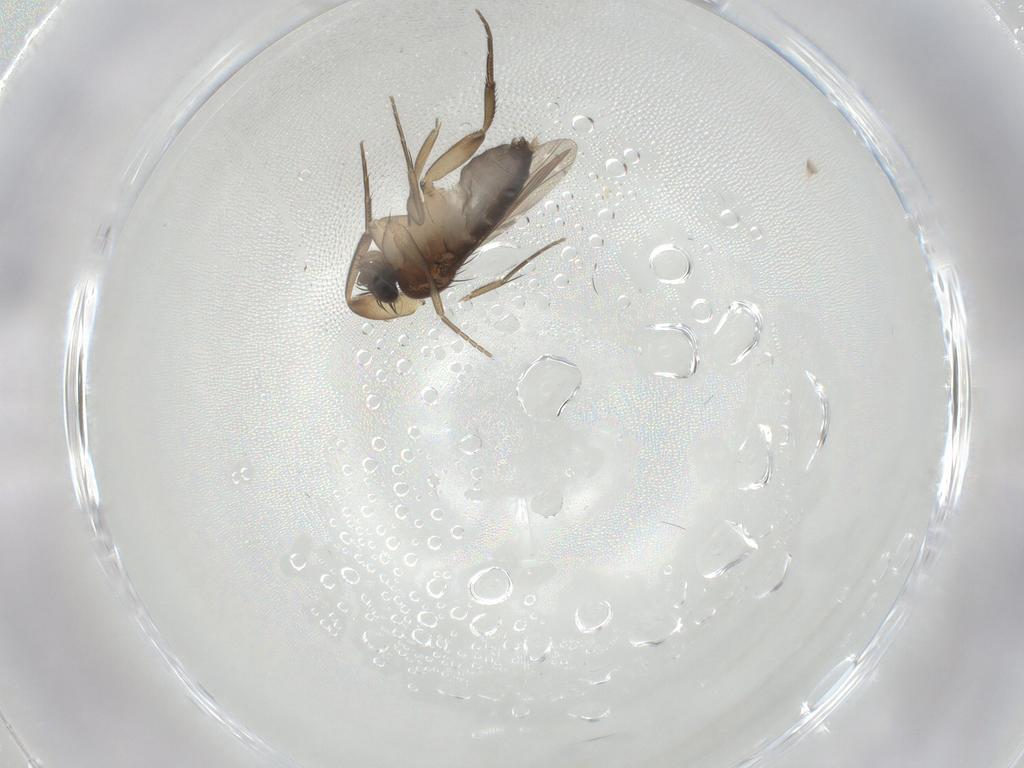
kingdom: Animalia
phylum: Arthropoda
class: Insecta
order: Diptera
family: Phoridae
